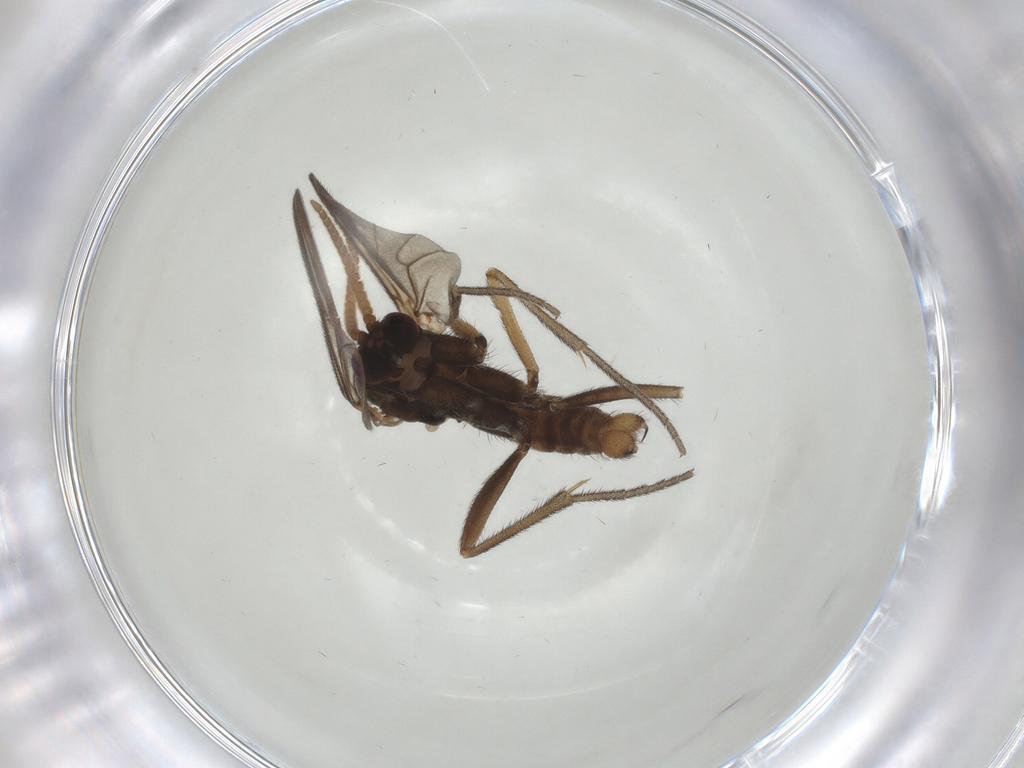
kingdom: Animalia
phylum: Arthropoda
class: Insecta
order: Diptera
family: Mycetophilidae
